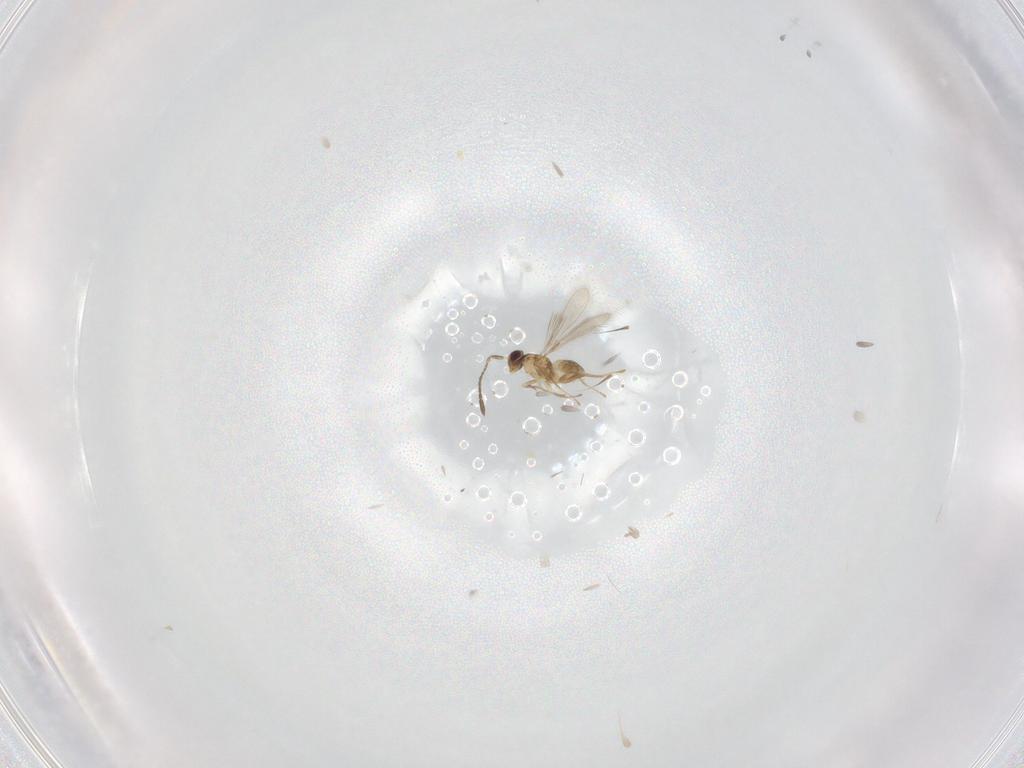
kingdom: Animalia
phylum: Arthropoda
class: Insecta
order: Hymenoptera
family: Mymaridae
